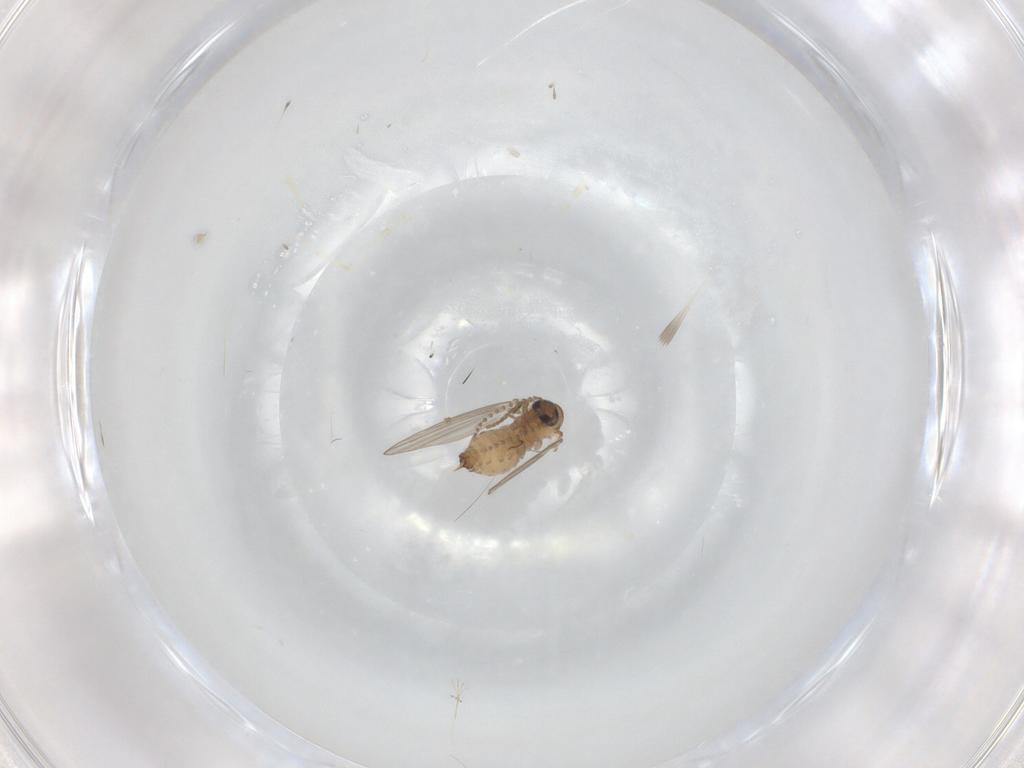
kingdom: Animalia
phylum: Arthropoda
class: Insecta
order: Diptera
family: Psychodidae
